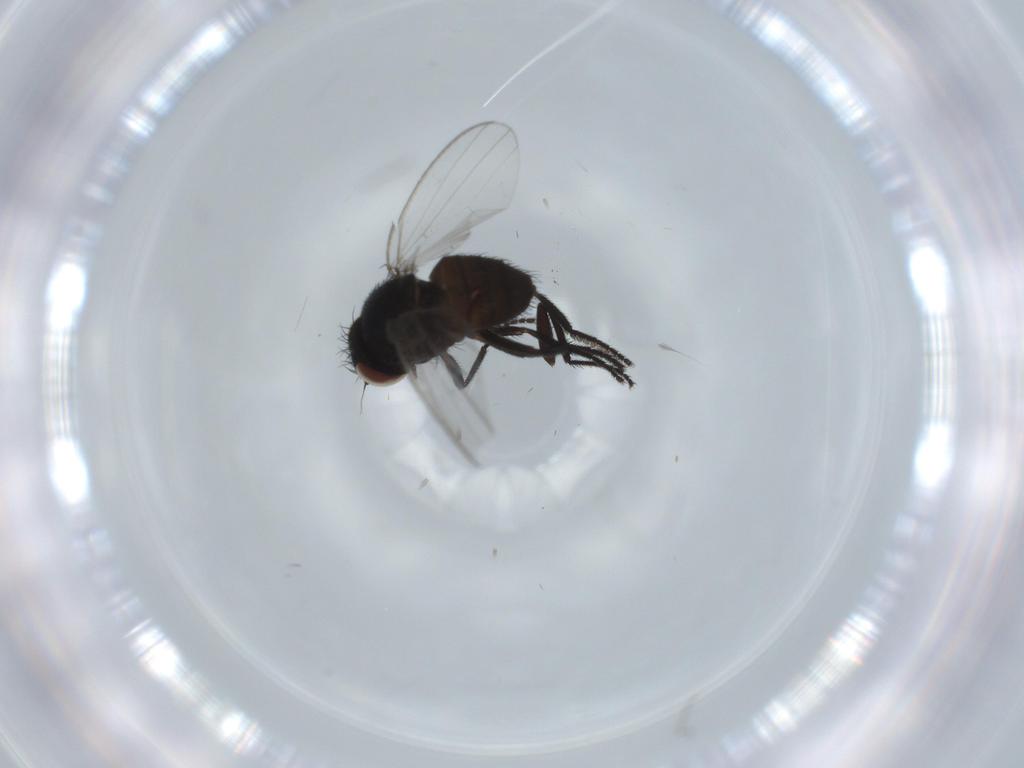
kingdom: Animalia
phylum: Arthropoda
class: Insecta
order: Diptera
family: Milichiidae
